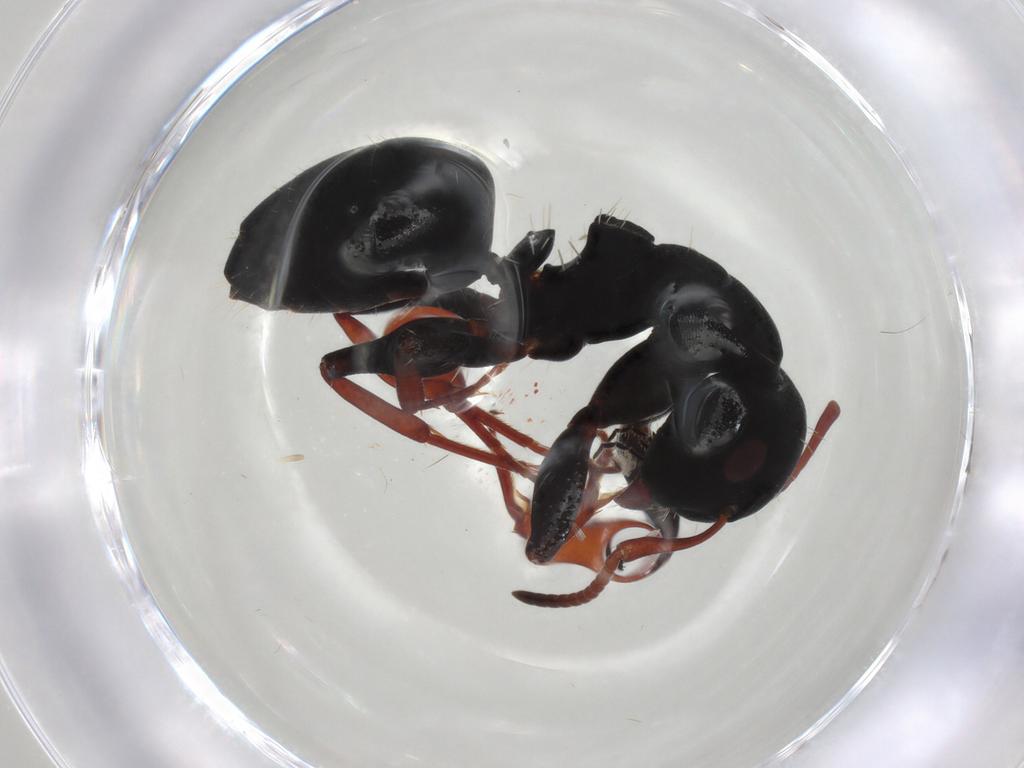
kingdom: Animalia
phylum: Arthropoda
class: Insecta
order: Hymenoptera
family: Formicidae
